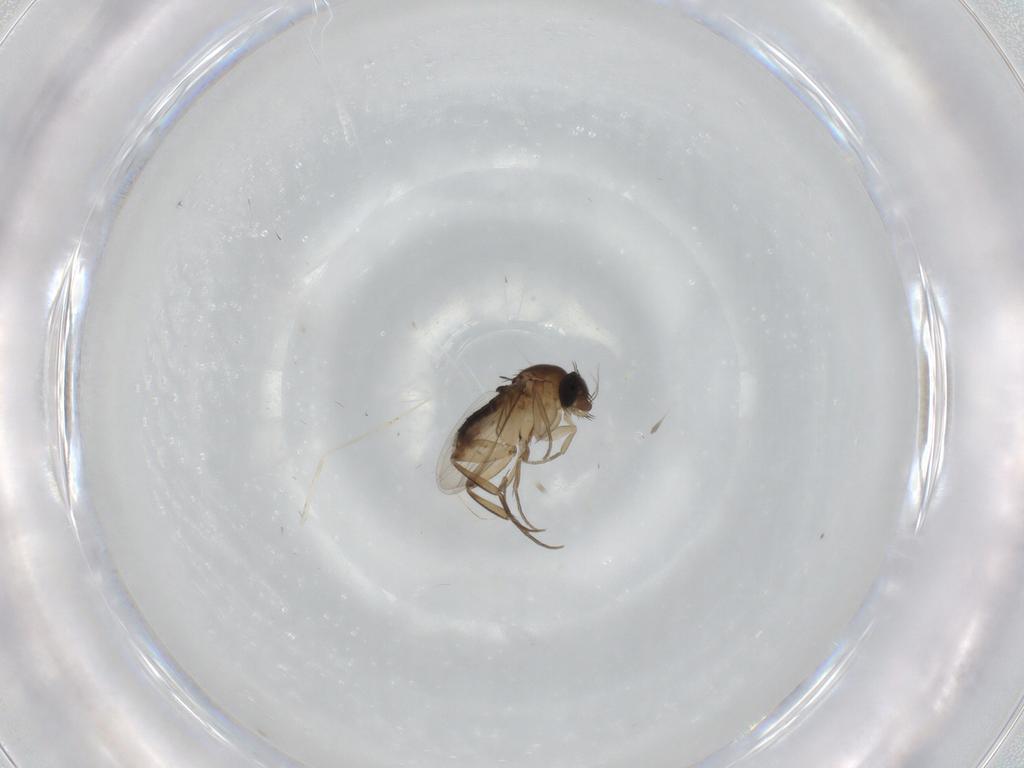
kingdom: Animalia
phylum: Arthropoda
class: Insecta
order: Diptera
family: Phoridae
